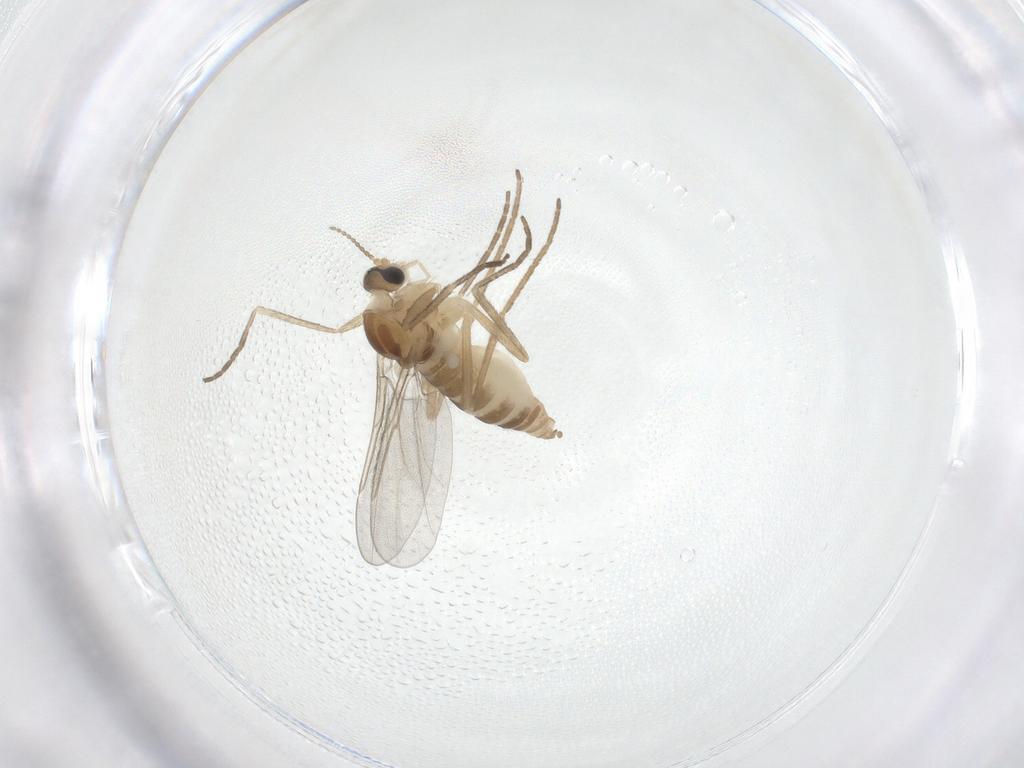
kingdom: Animalia
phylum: Arthropoda
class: Insecta
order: Diptera
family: Cecidomyiidae
